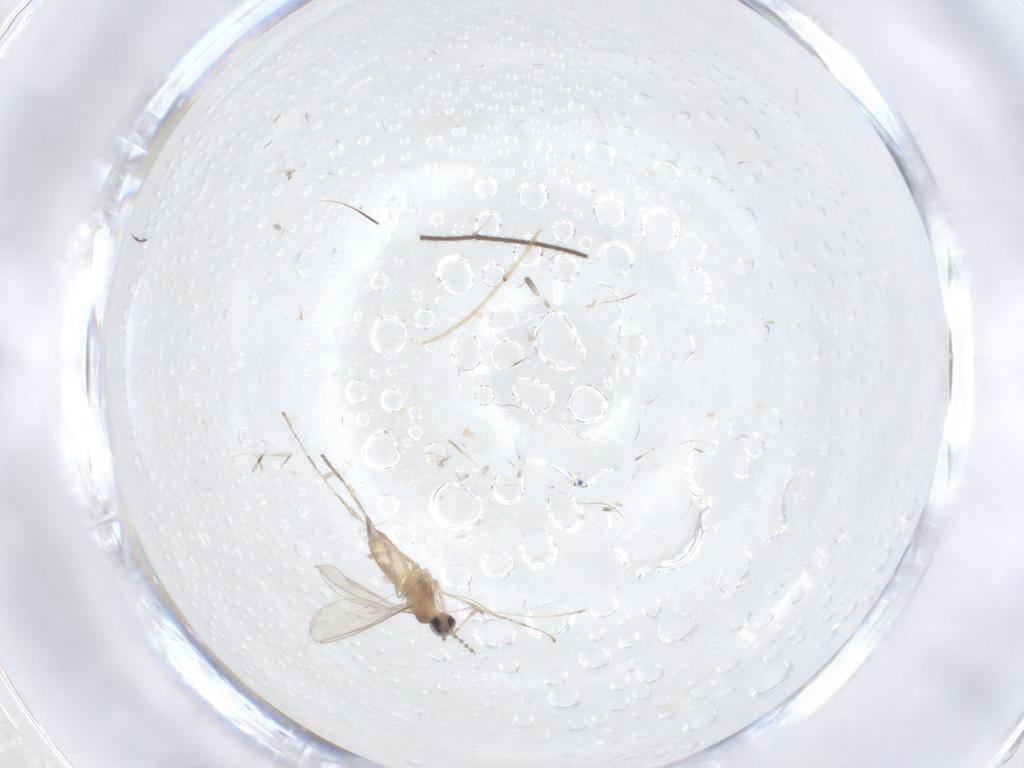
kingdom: Animalia
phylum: Arthropoda
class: Insecta
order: Diptera
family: Cecidomyiidae
